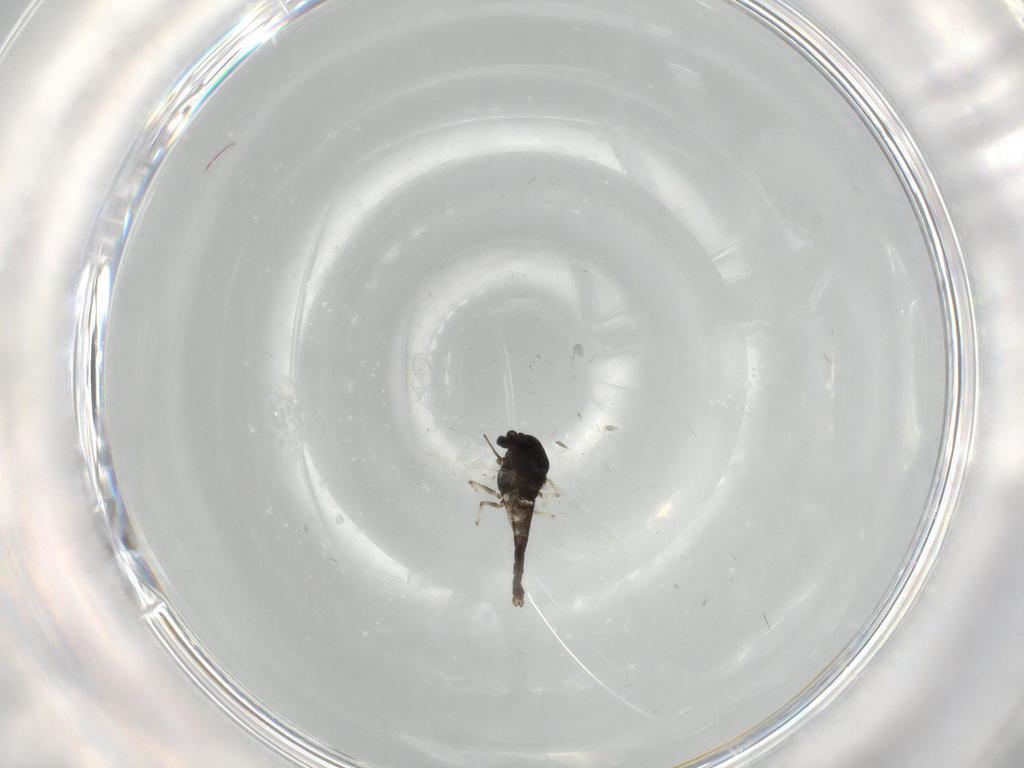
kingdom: Animalia
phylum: Arthropoda
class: Insecta
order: Diptera
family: Chironomidae
